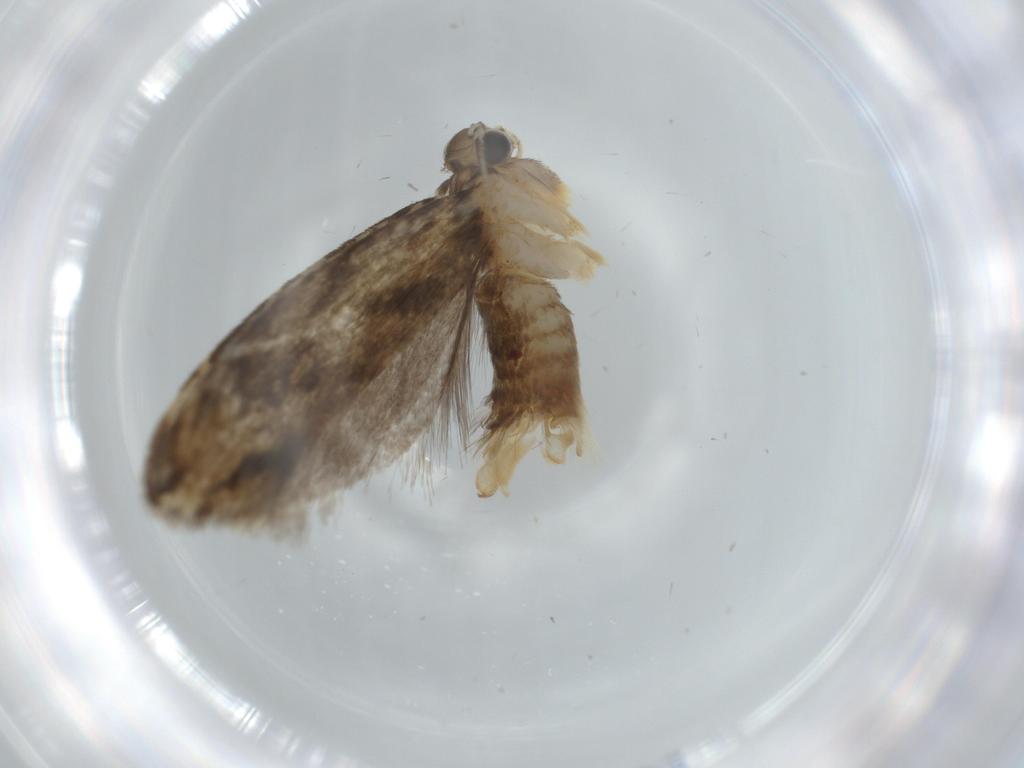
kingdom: Animalia
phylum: Arthropoda
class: Insecta
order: Lepidoptera
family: Tineidae
